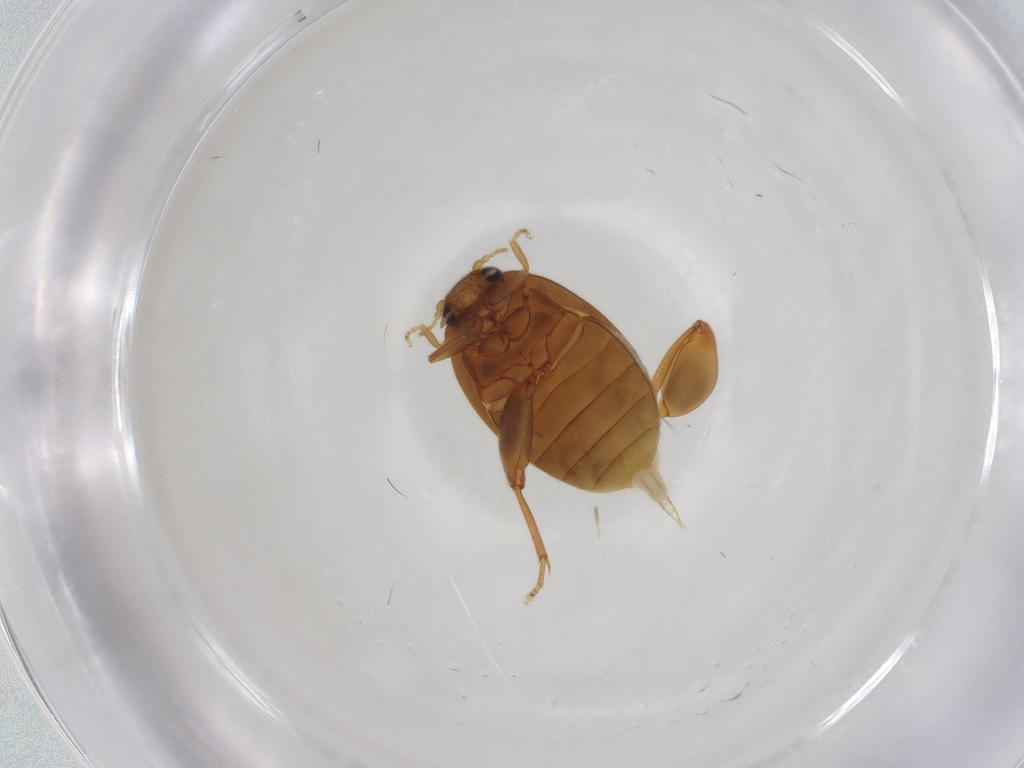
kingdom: Animalia
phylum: Arthropoda
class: Insecta
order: Coleoptera
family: Scirtidae
